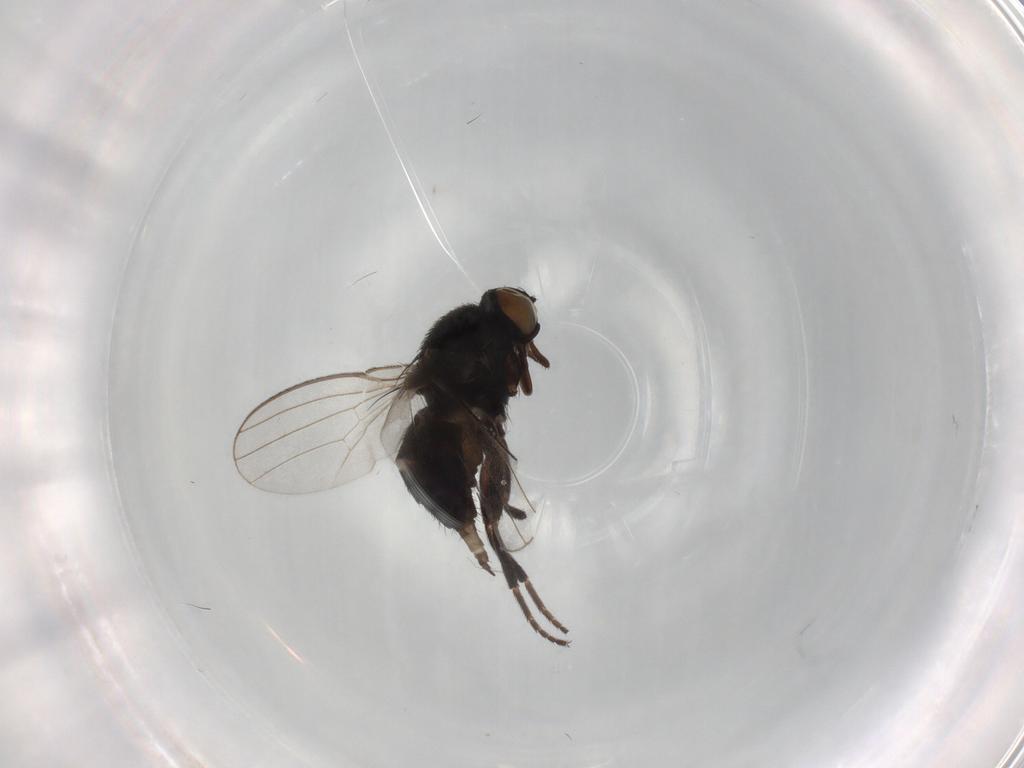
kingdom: Animalia
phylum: Arthropoda
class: Insecta
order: Diptera
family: Milichiidae
